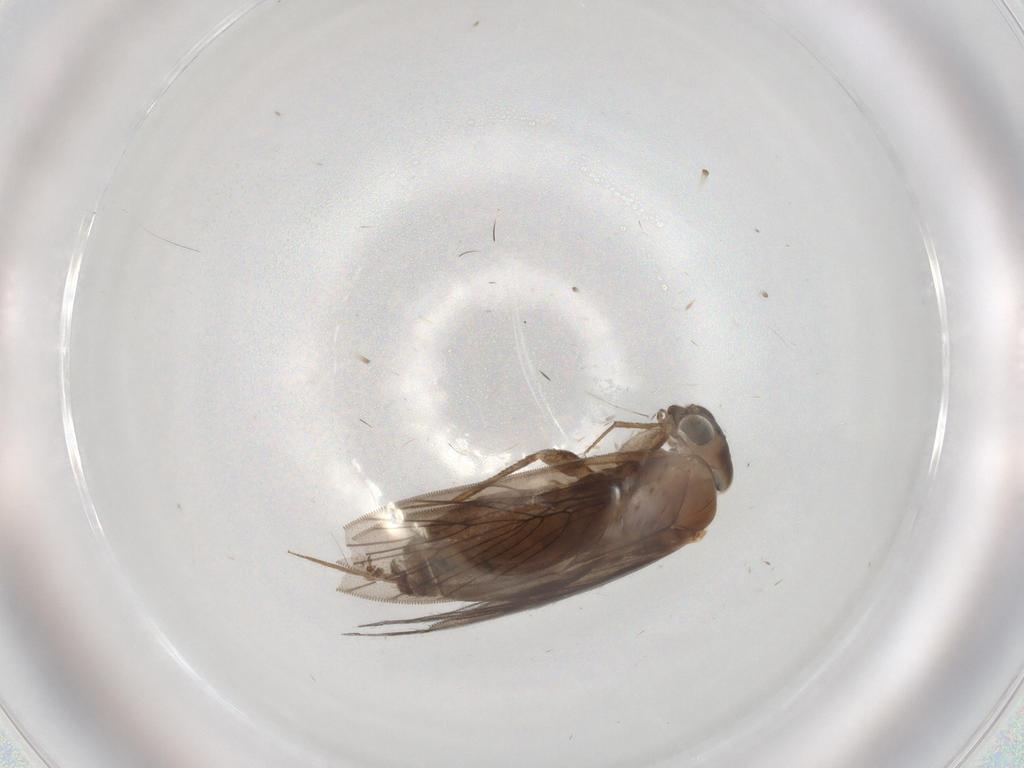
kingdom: Animalia
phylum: Arthropoda
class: Insecta
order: Psocodea
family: Lepidopsocidae
